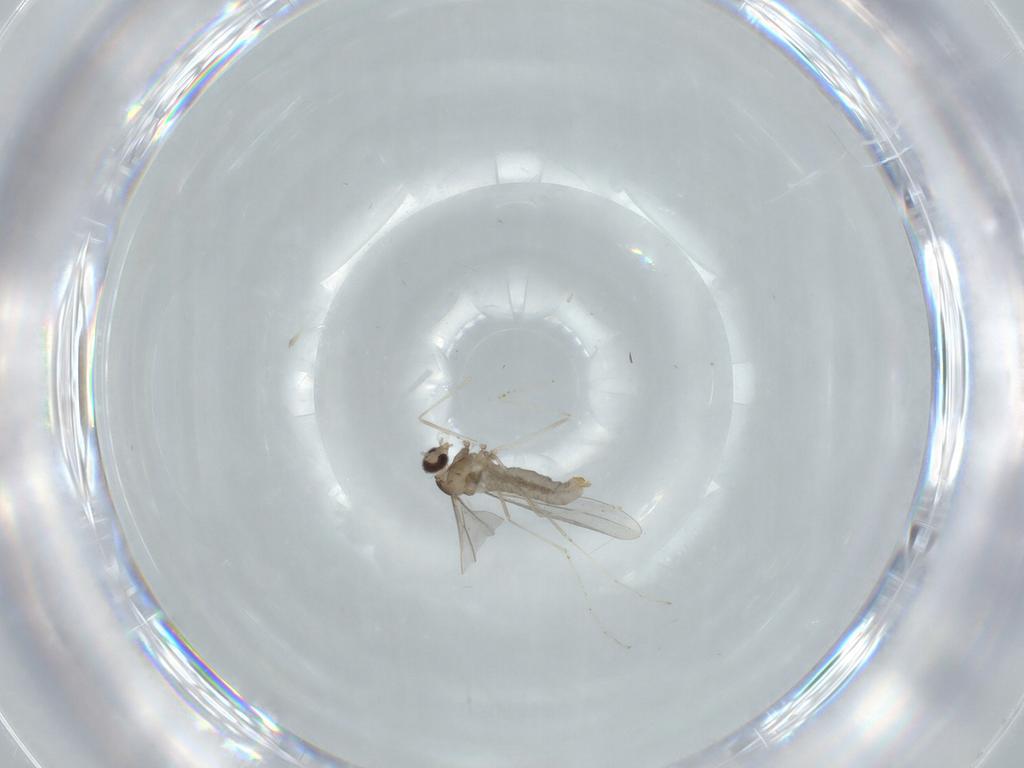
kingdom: Animalia
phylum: Arthropoda
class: Insecta
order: Diptera
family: Cecidomyiidae
